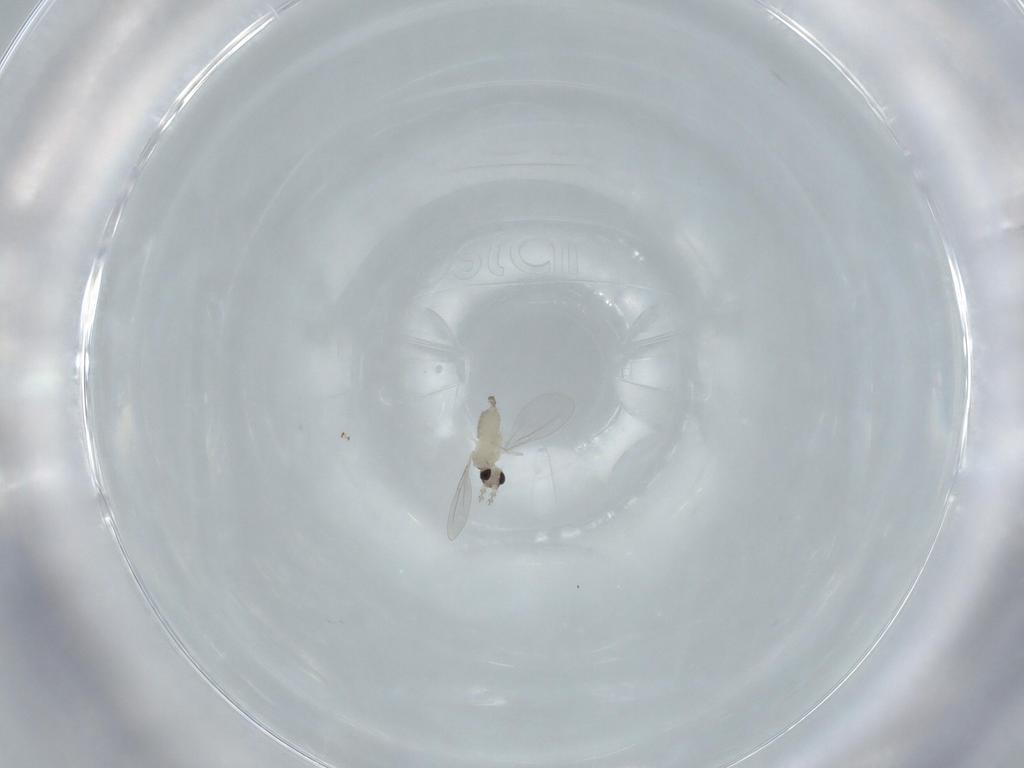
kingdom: Animalia
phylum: Arthropoda
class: Insecta
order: Diptera
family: Cecidomyiidae
